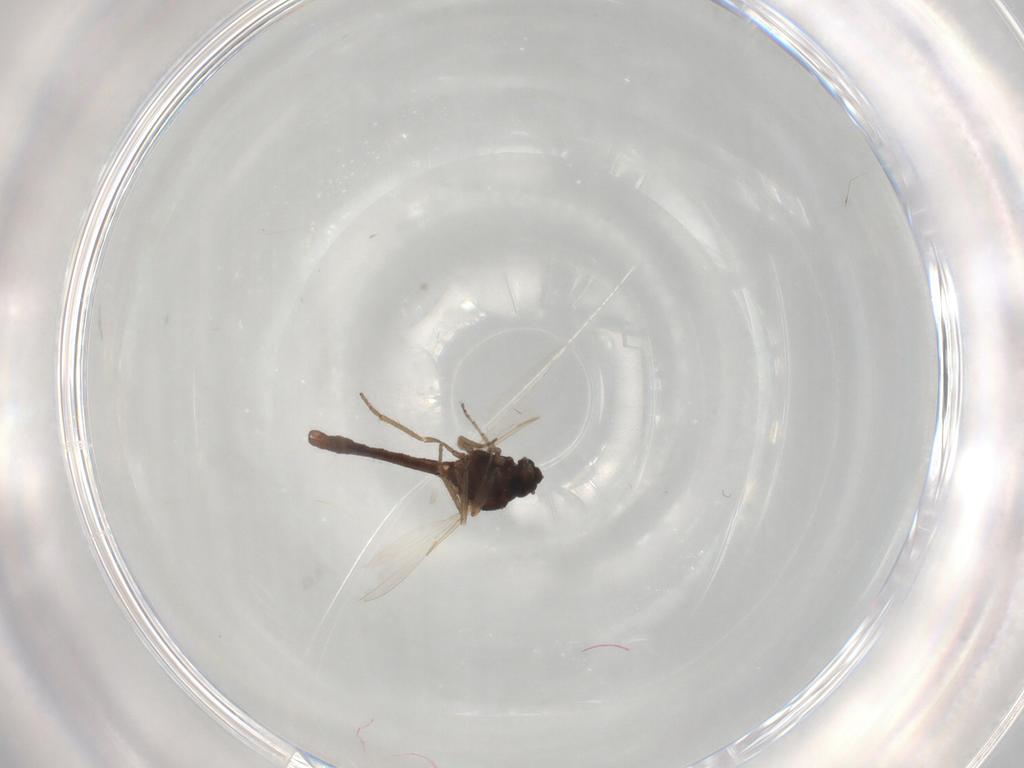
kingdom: Animalia
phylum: Arthropoda
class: Insecta
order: Diptera
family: Ceratopogonidae
